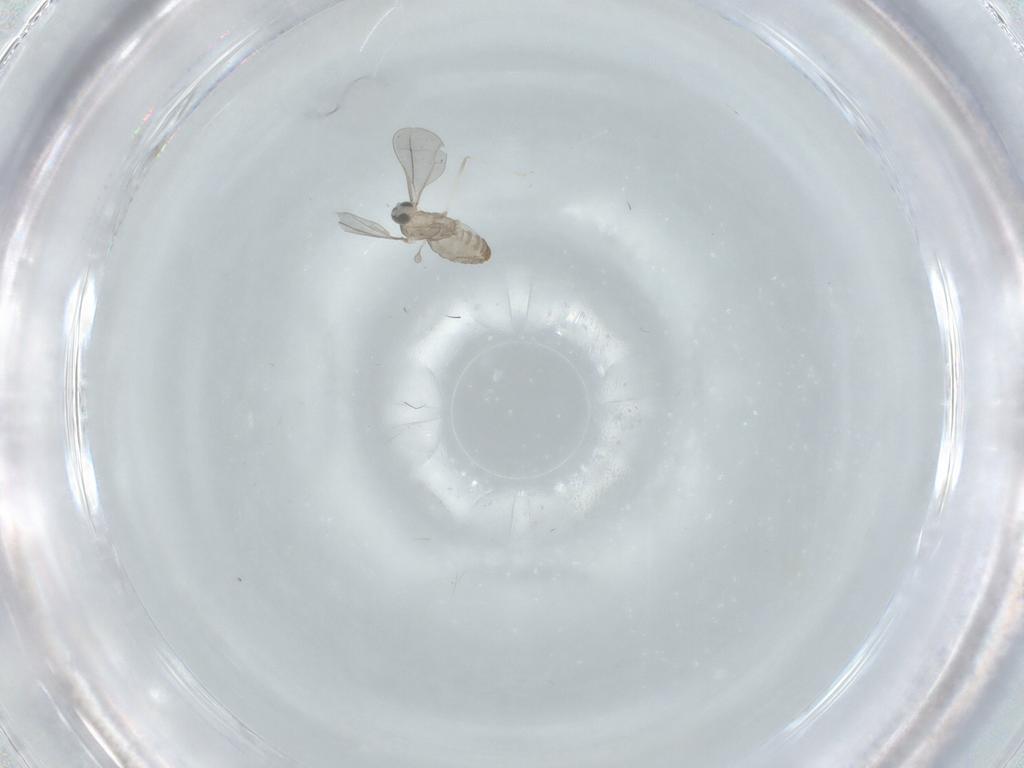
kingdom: Animalia
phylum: Arthropoda
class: Insecta
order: Diptera
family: Cecidomyiidae
